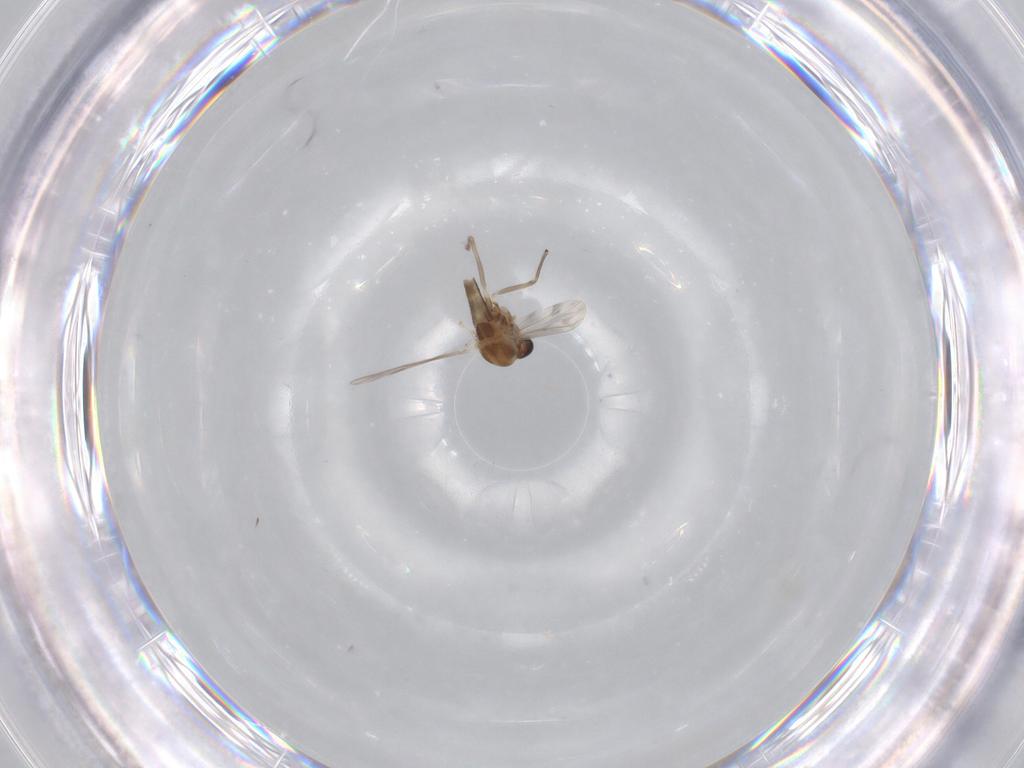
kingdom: Animalia
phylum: Arthropoda
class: Insecta
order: Diptera
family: Chironomidae
